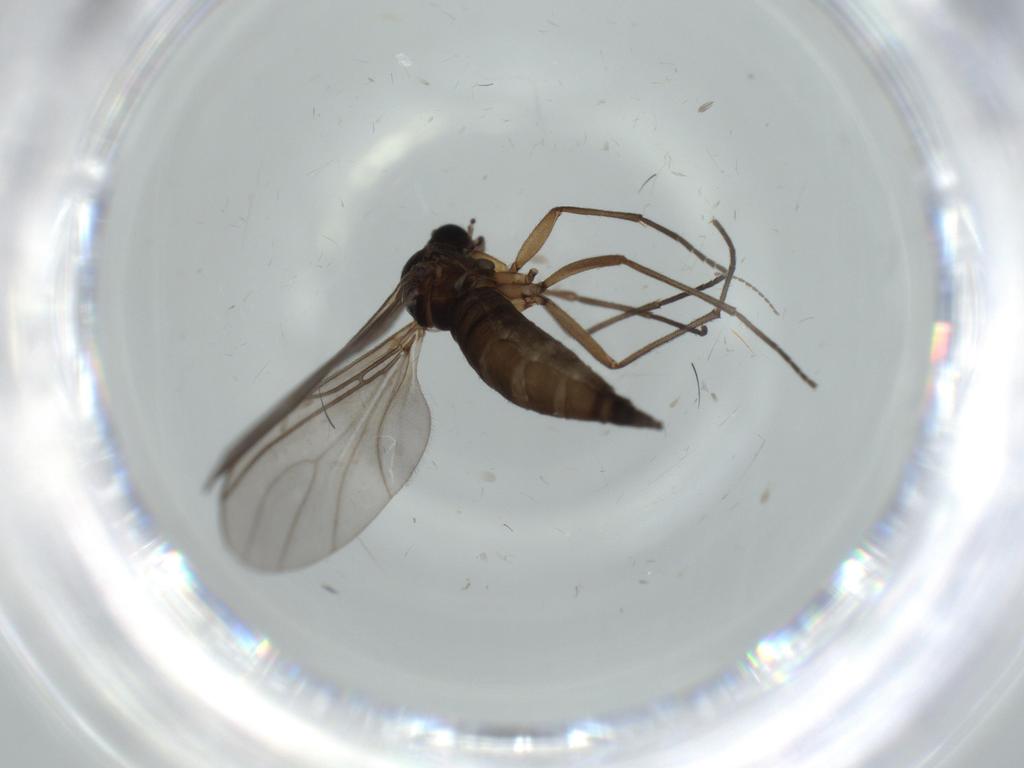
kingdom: Animalia
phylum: Arthropoda
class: Insecta
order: Diptera
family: Sciaridae
